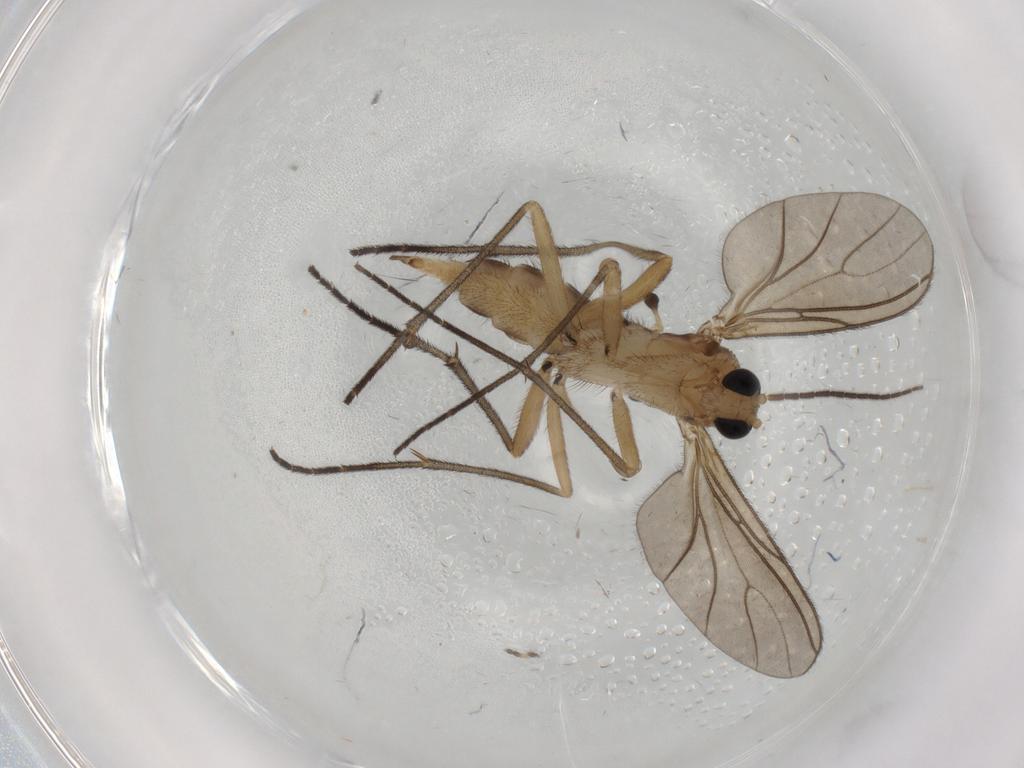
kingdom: Animalia
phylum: Arthropoda
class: Insecta
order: Diptera
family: Sciaridae
